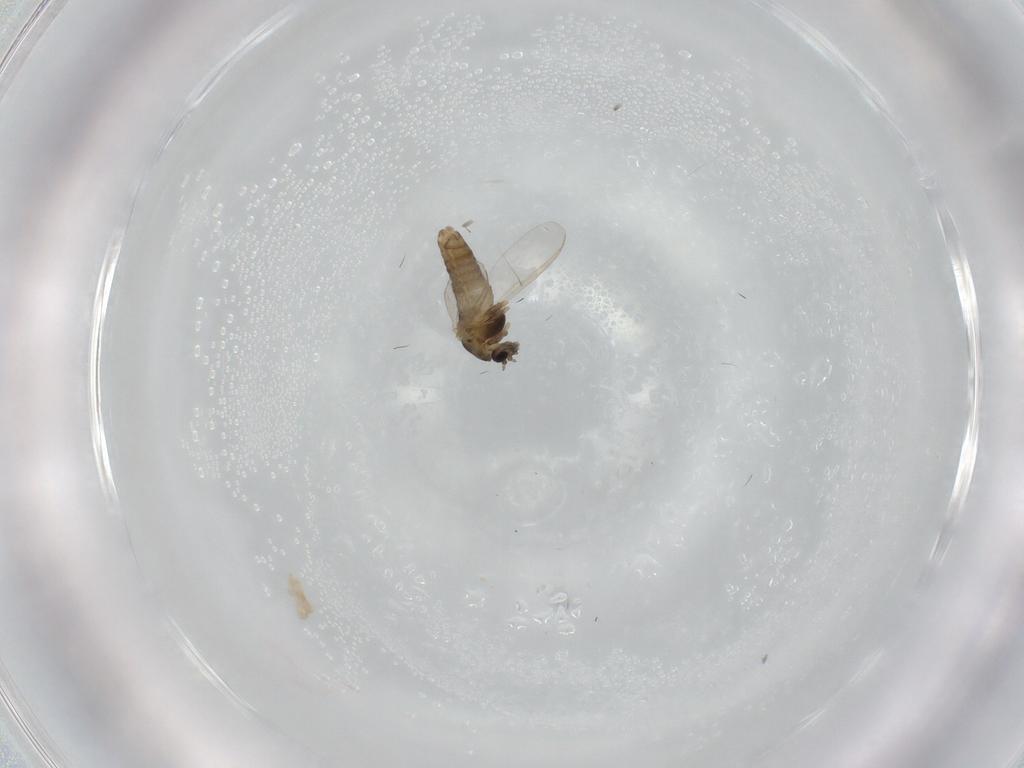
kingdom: Animalia
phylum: Arthropoda
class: Insecta
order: Diptera
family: Chironomidae
